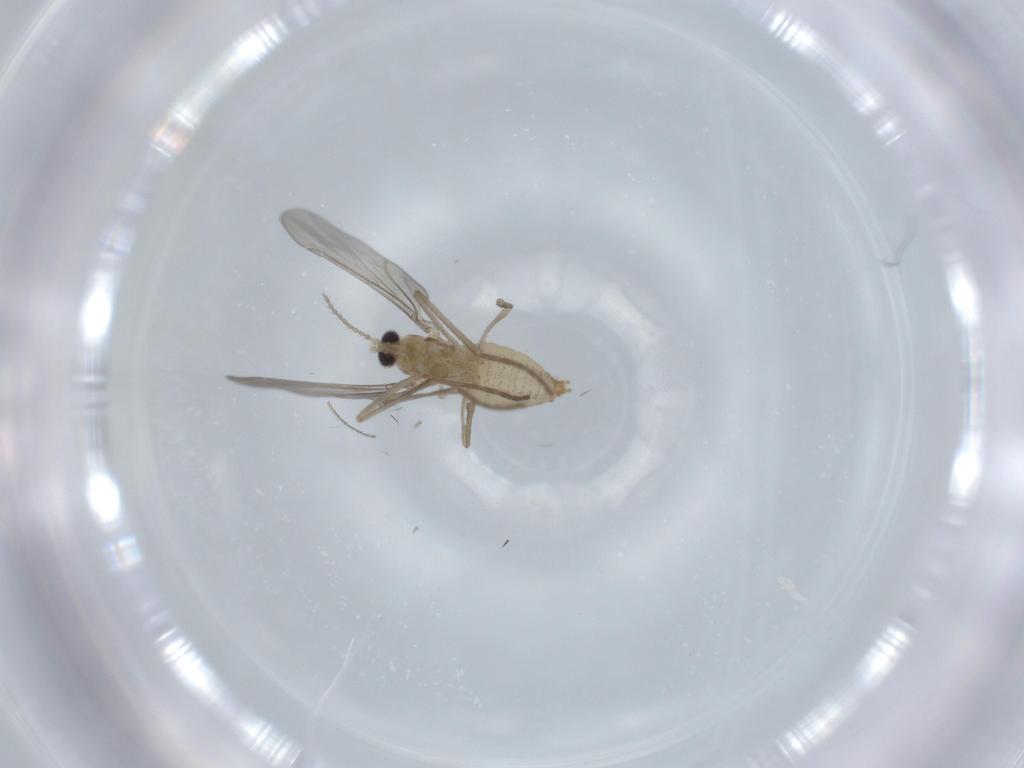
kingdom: Animalia
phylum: Arthropoda
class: Insecta
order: Diptera
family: Cecidomyiidae
